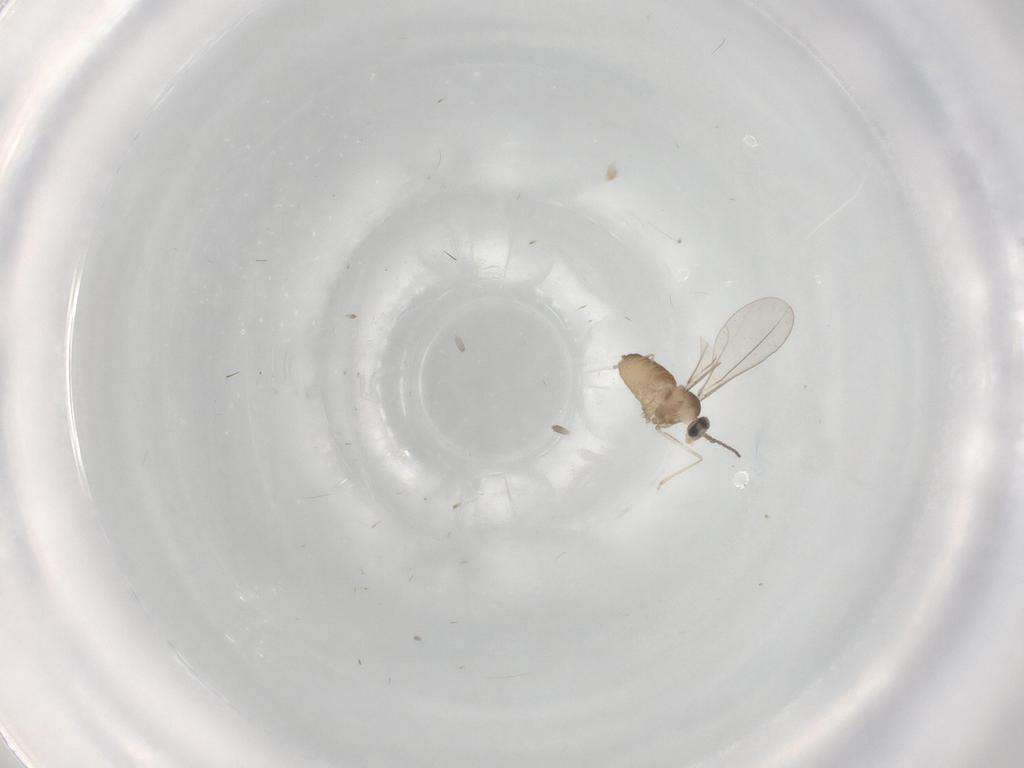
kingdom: Animalia
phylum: Arthropoda
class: Insecta
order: Diptera
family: Cecidomyiidae
